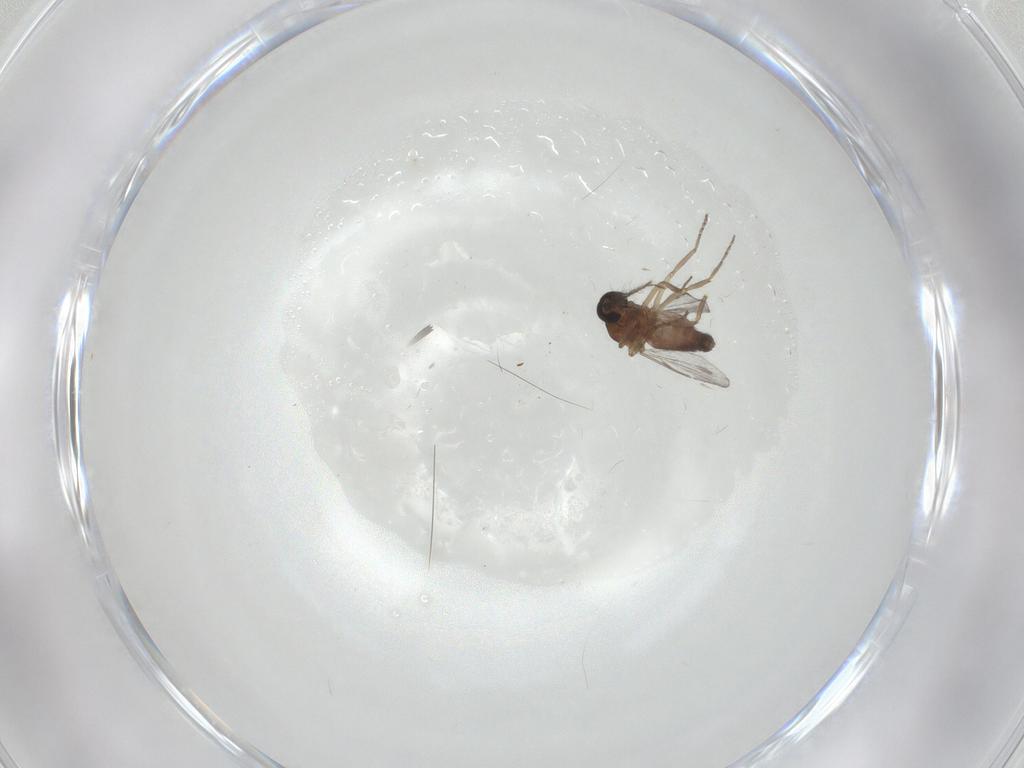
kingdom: Animalia
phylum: Arthropoda
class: Insecta
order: Diptera
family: Ceratopogonidae
